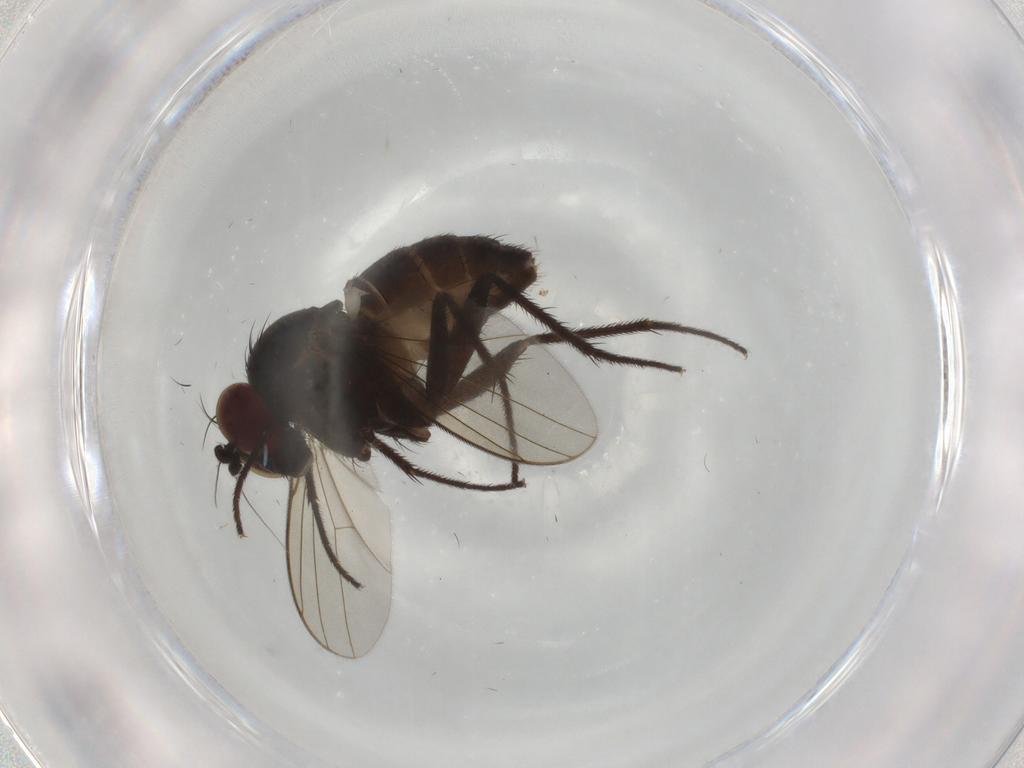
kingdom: Animalia
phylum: Arthropoda
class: Insecta
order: Diptera
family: Dolichopodidae
